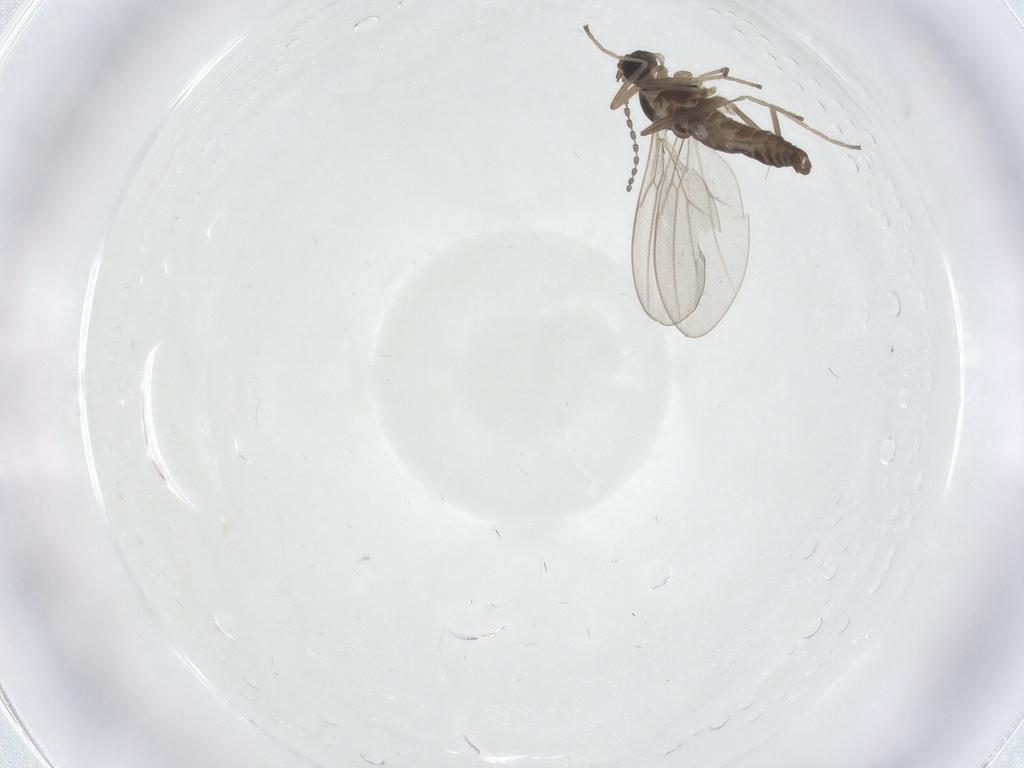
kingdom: Animalia
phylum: Arthropoda
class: Insecta
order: Diptera
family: Cecidomyiidae
